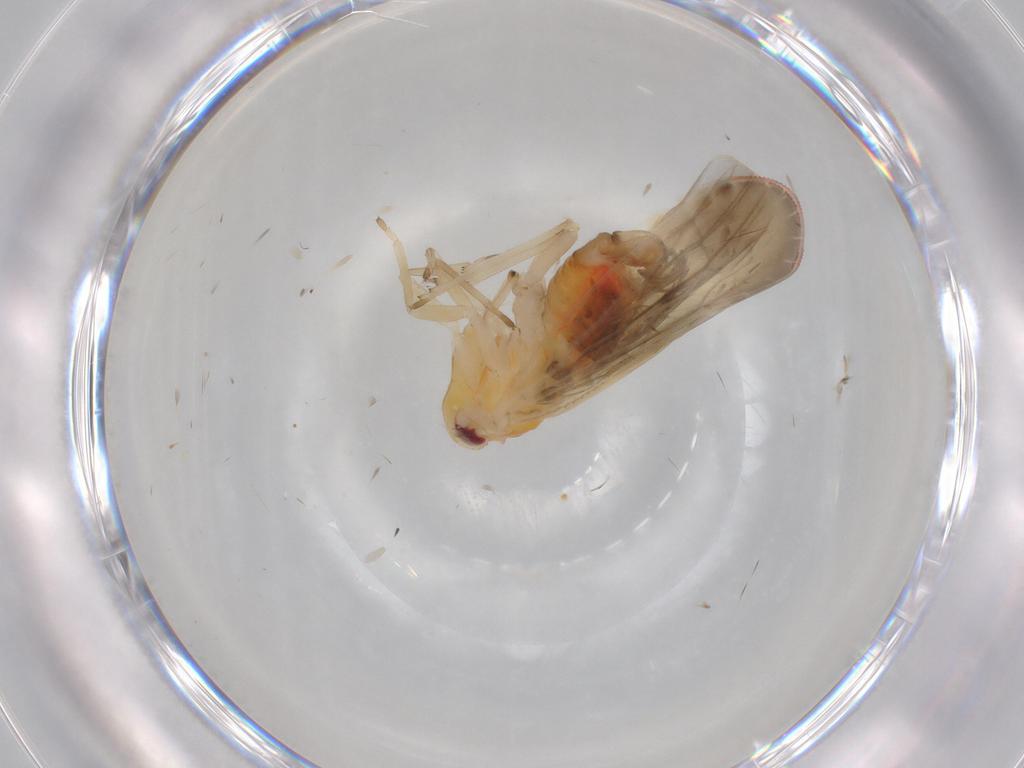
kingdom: Animalia
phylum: Arthropoda
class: Insecta
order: Hemiptera
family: Derbidae
